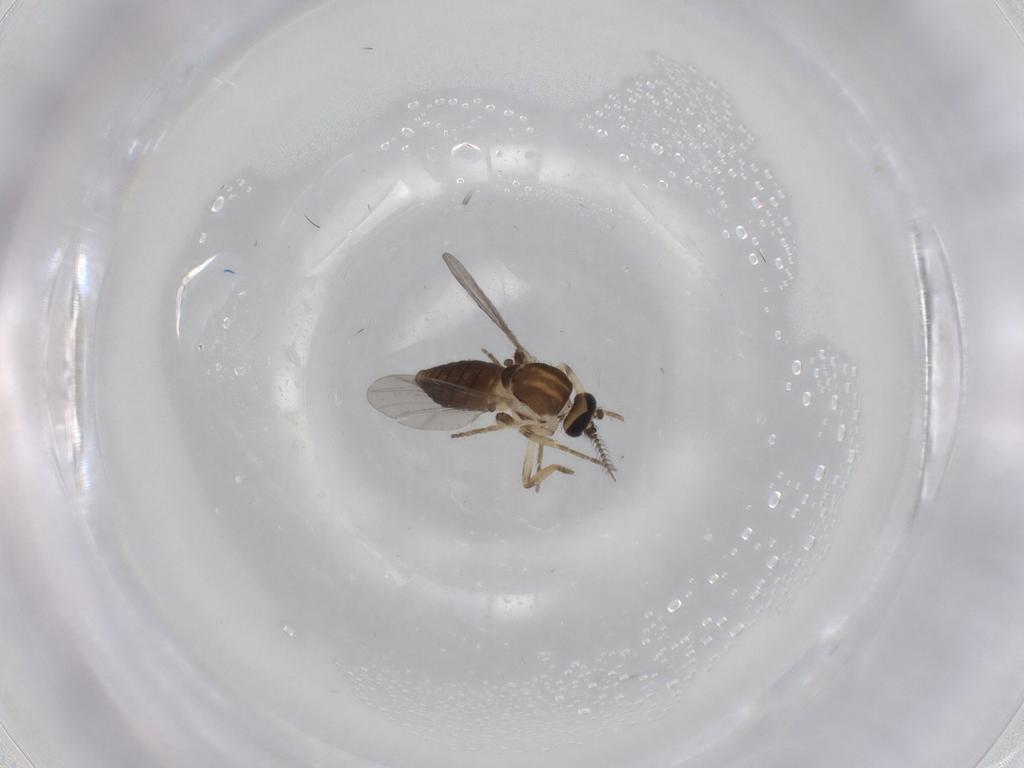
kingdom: Animalia
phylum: Arthropoda
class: Insecta
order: Diptera
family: Ceratopogonidae
